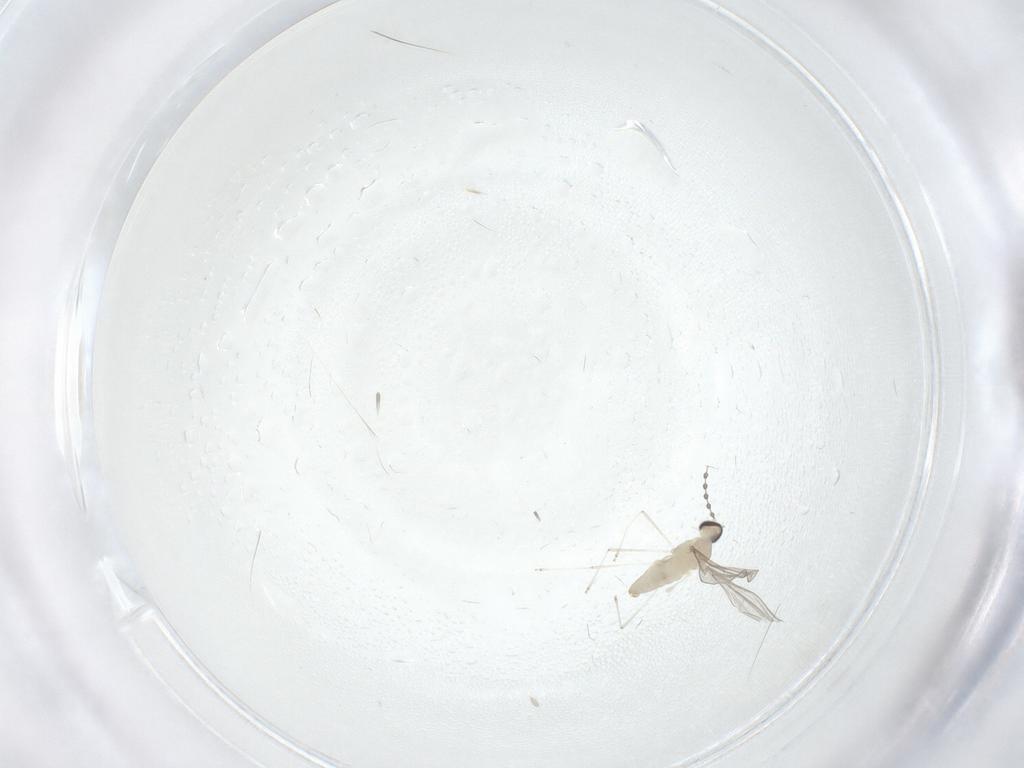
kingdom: Animalia
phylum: Arthropoda
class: Insecta
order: Diptera
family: Cecidomyiidae
